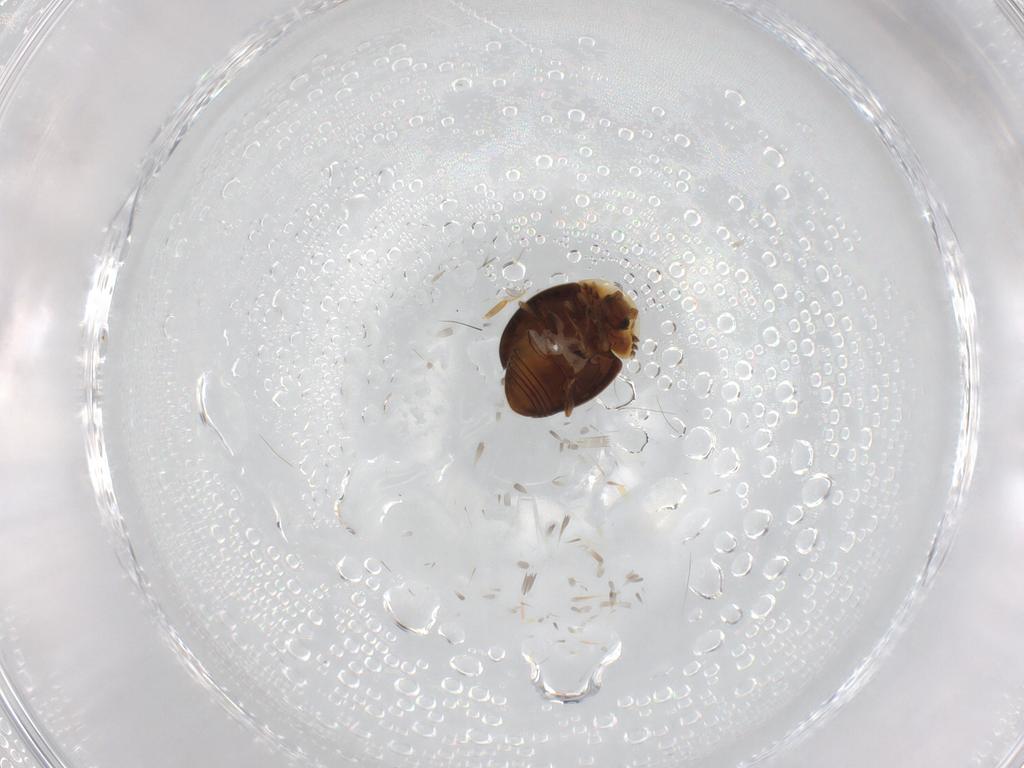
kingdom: Animalia
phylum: Arthropoda
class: Insecta
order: Coleoptera
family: Corylophidae
